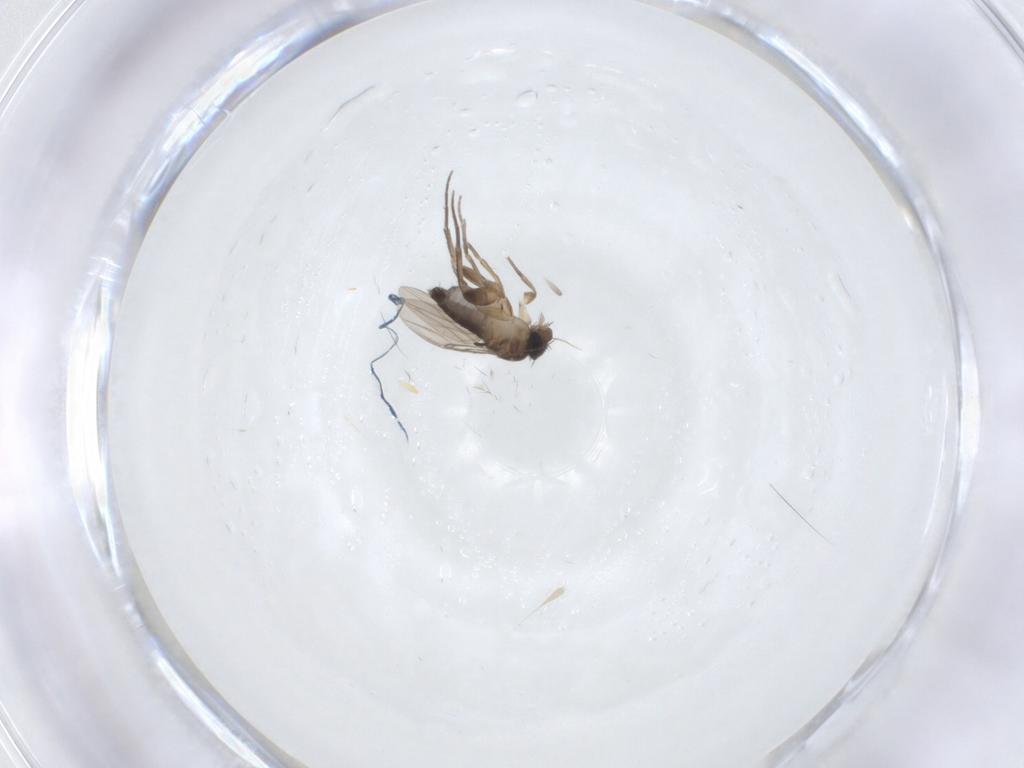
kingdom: Animalia
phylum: Arthropoda
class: Insecta
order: Diptera
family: Phoridae
